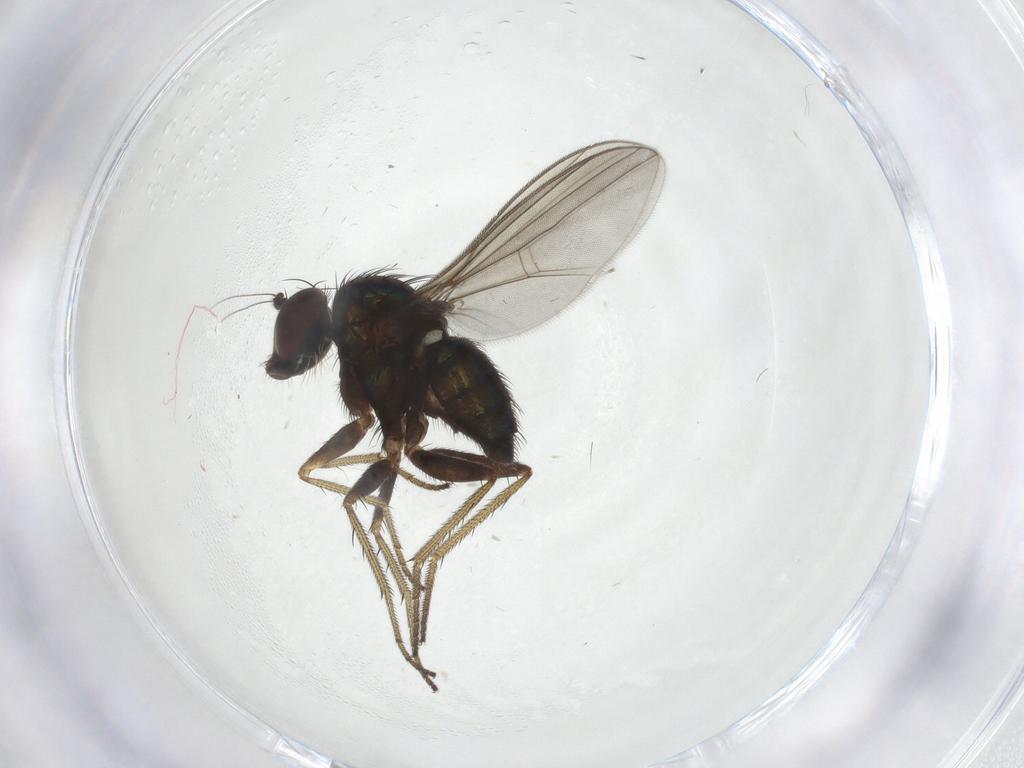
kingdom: Animalia
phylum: Arthropoda
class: Insecta
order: Diptera
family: Dolichopodidae
